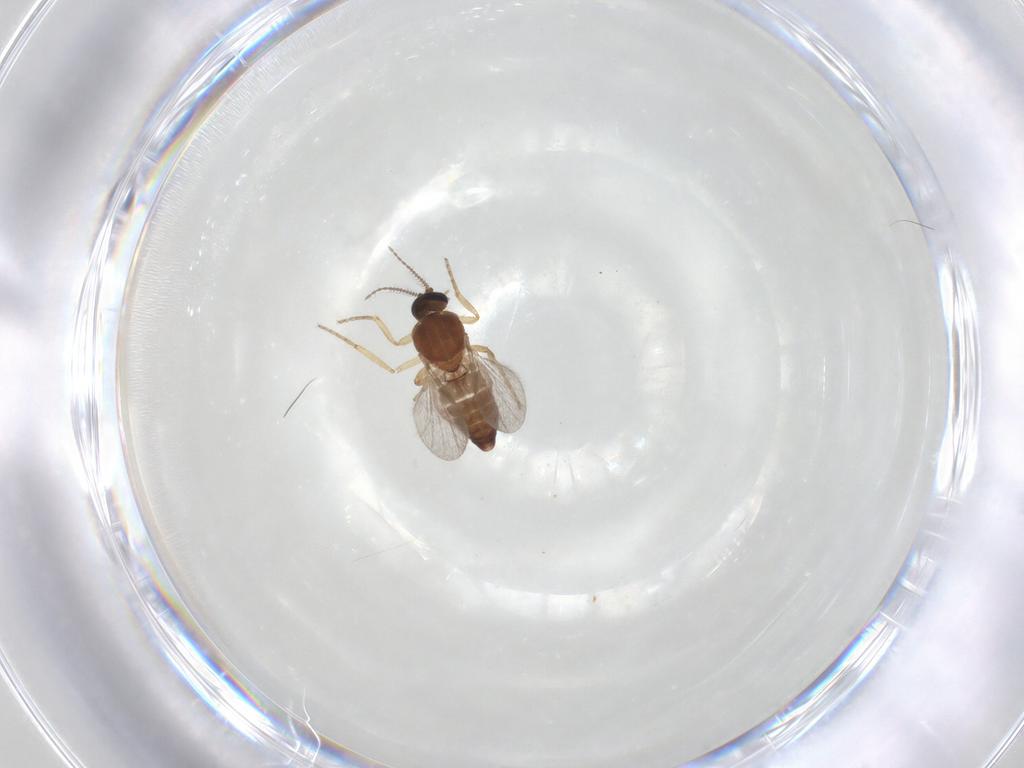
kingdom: Animalia
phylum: Arthropoda
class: Insecta
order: Diptera
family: Ceratopogonidae
